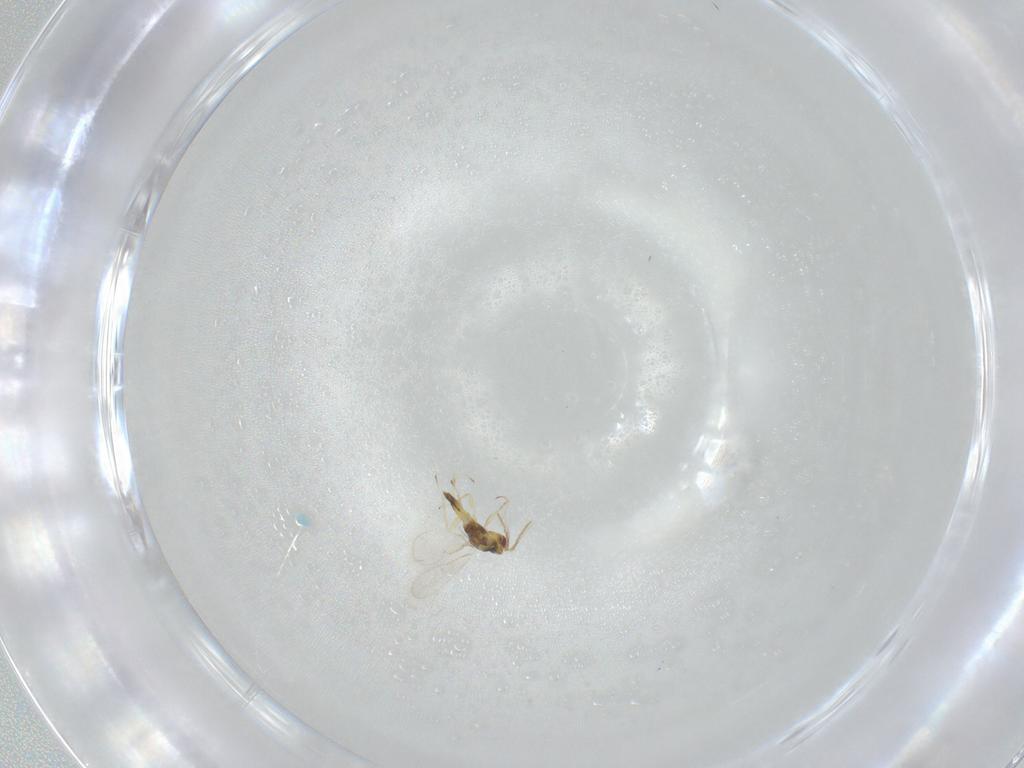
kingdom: Animalia
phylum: Arthropoda
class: Insecta
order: Hymenoptera
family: Eulophidae
